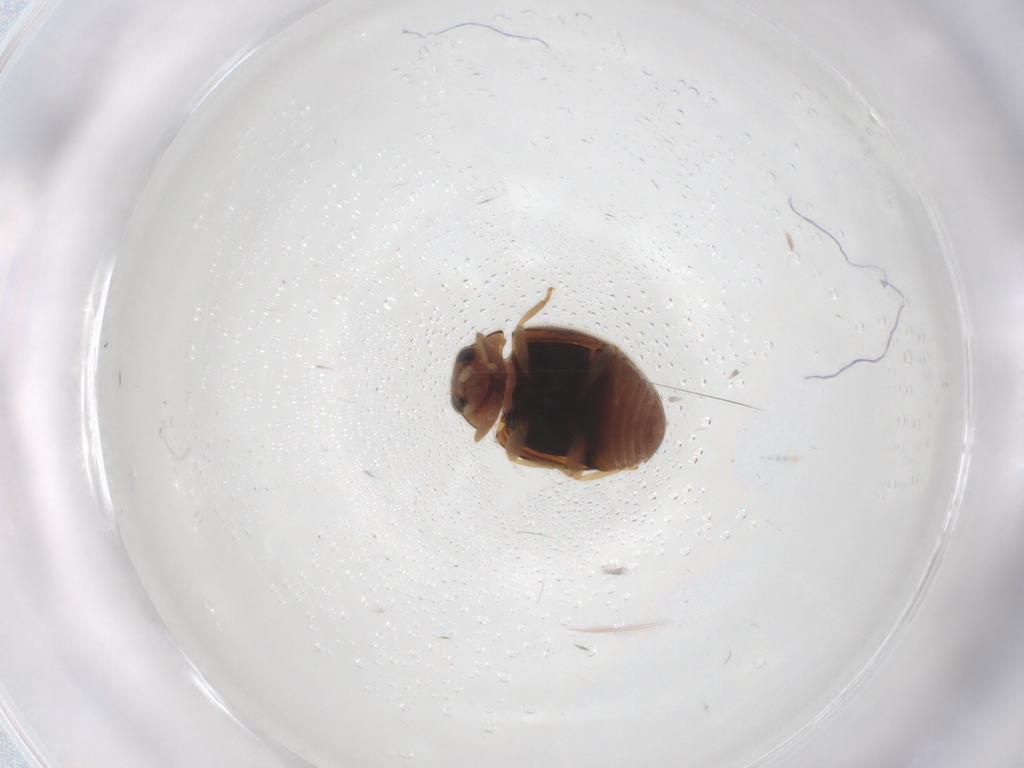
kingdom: Animalia
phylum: Arthropoda
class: Insecta
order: Coleoptera
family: Coccinellidae
